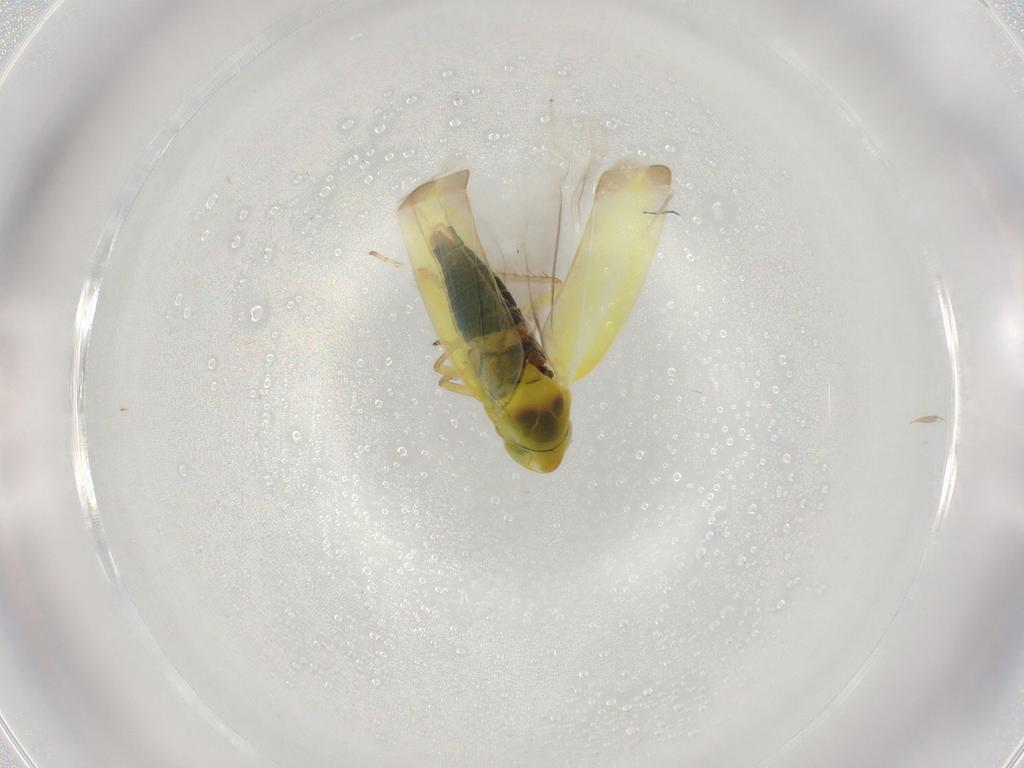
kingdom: Animalia
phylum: Arthropoda
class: Insecta
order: Hemiptera
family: Cicadellidae
